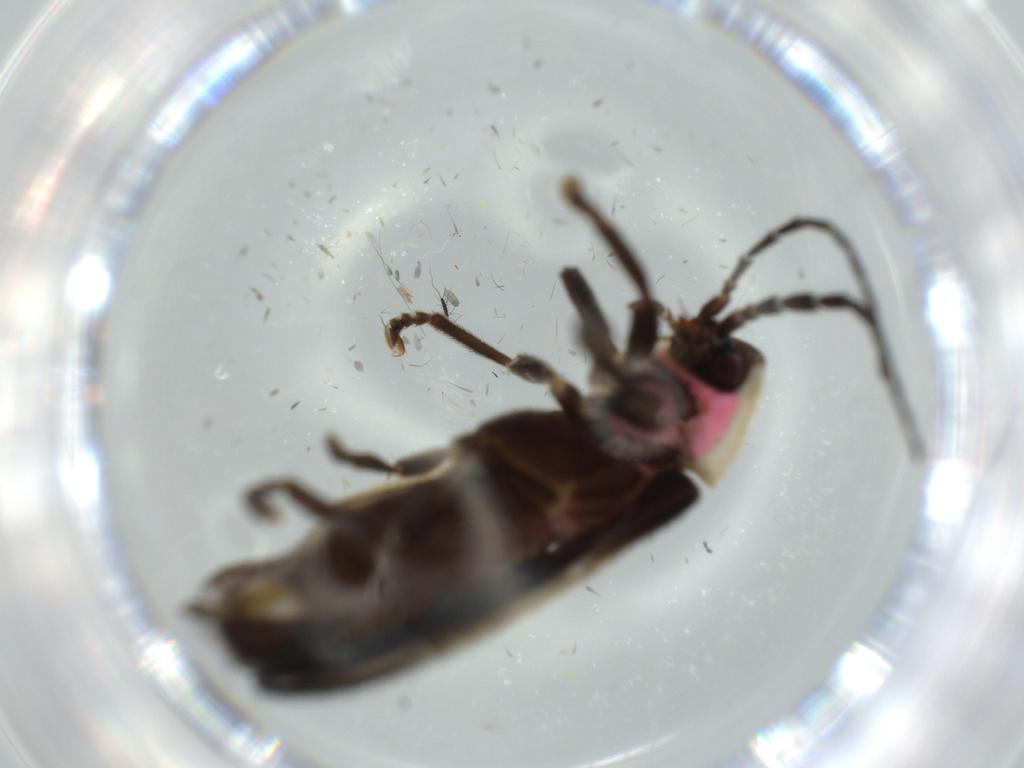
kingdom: Animalia
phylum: Arthropoda
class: Insecta
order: Coleoptera
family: Lampyridae
